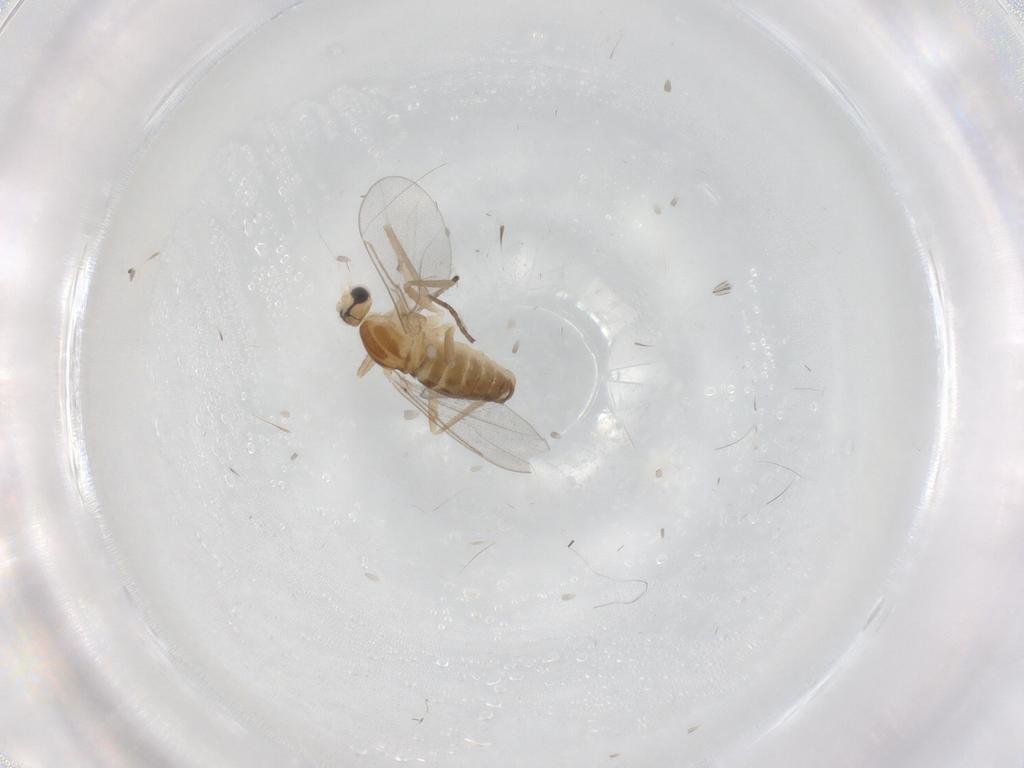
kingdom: Animalia
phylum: Arthropoda
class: Insecta
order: Diptera
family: Cecidomyiidae
